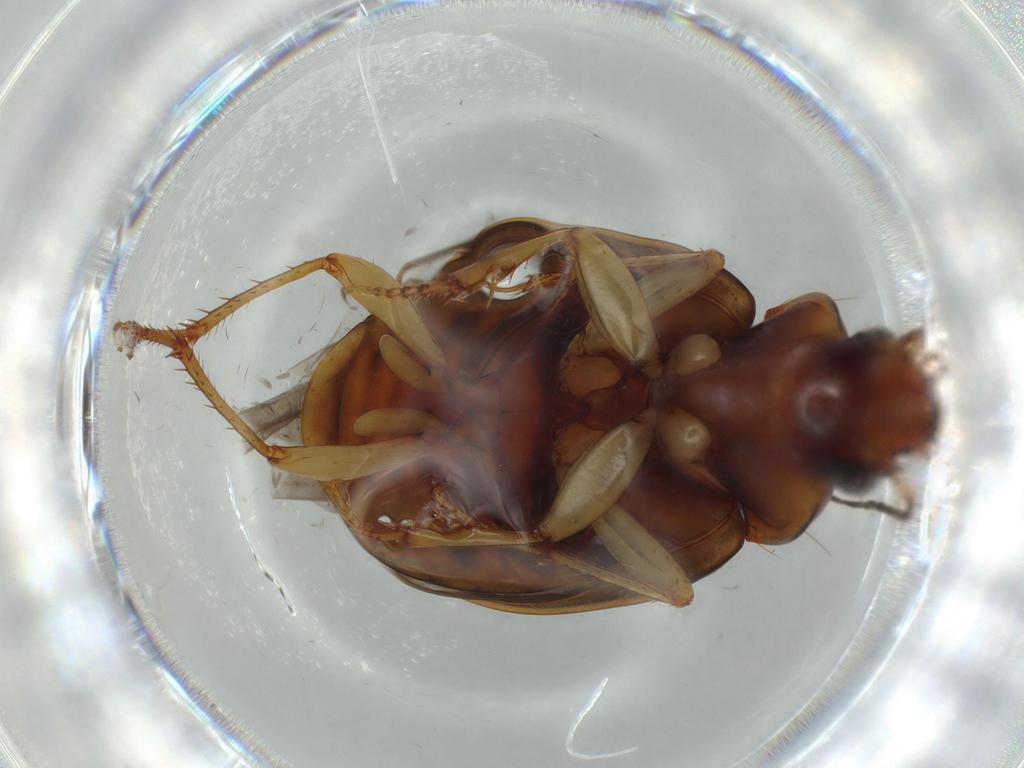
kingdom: Animalia
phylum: Arthropoda
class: Insecta
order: Coleoptera
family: Carabidae
